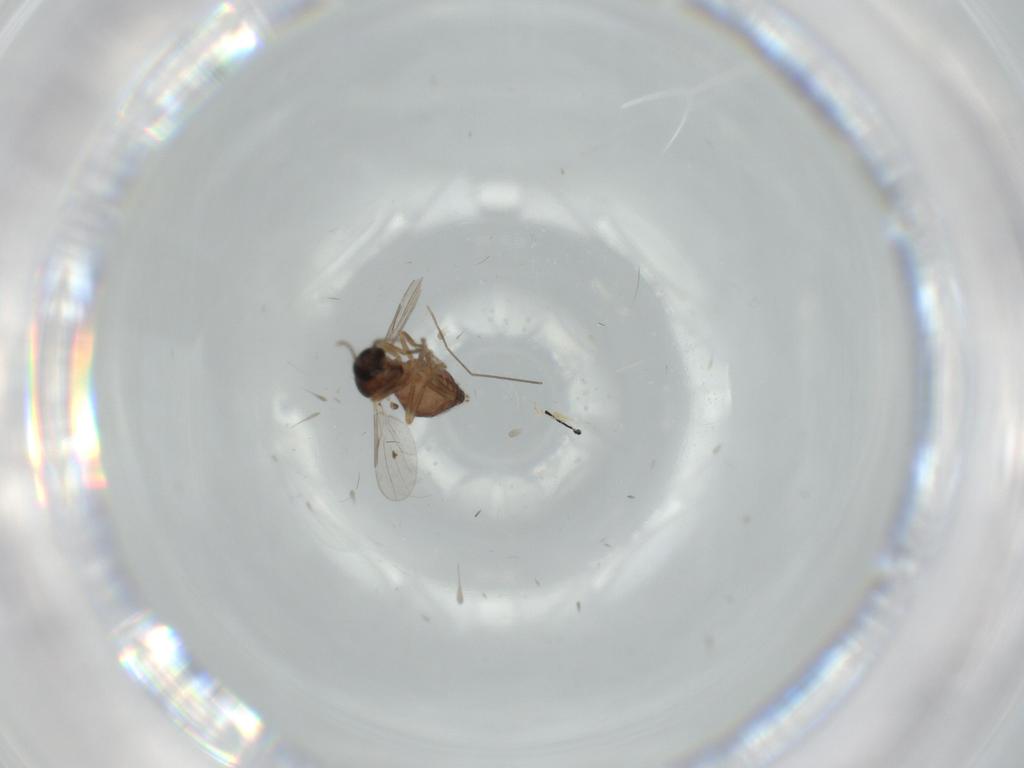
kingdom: Animalia
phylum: Arthropoda
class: Insecta
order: Diptera
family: Ceratopogonidae
